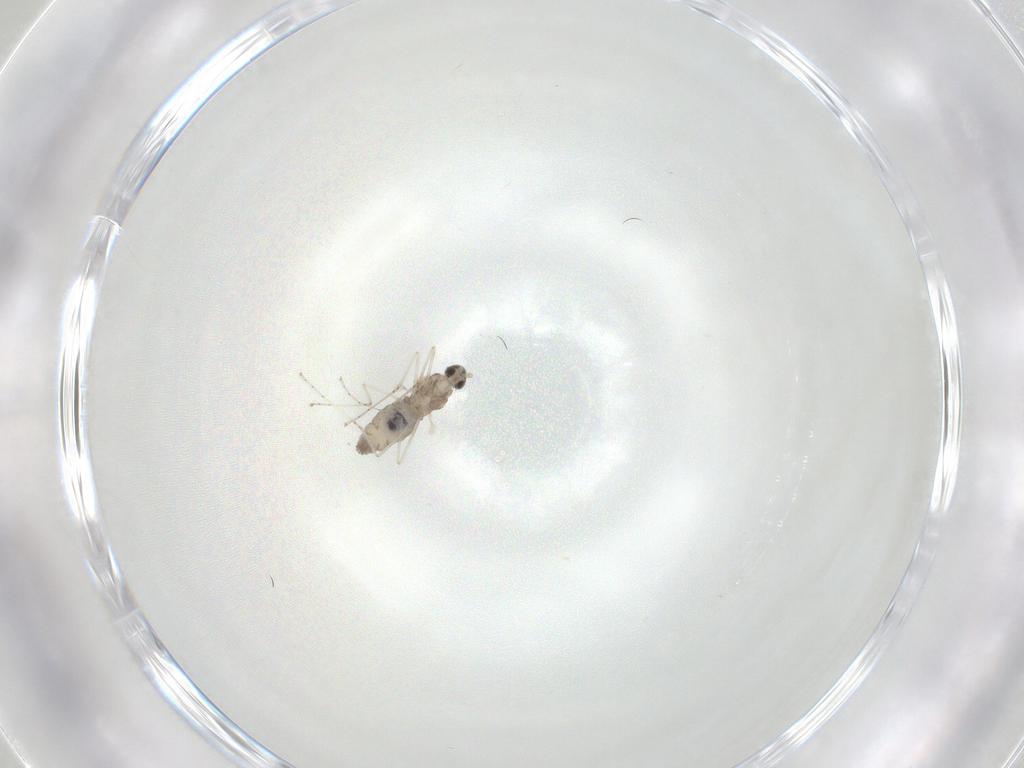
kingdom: Animalia
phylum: Arthropoda
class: Insecta
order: Diptera
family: Cecidomyiidae
